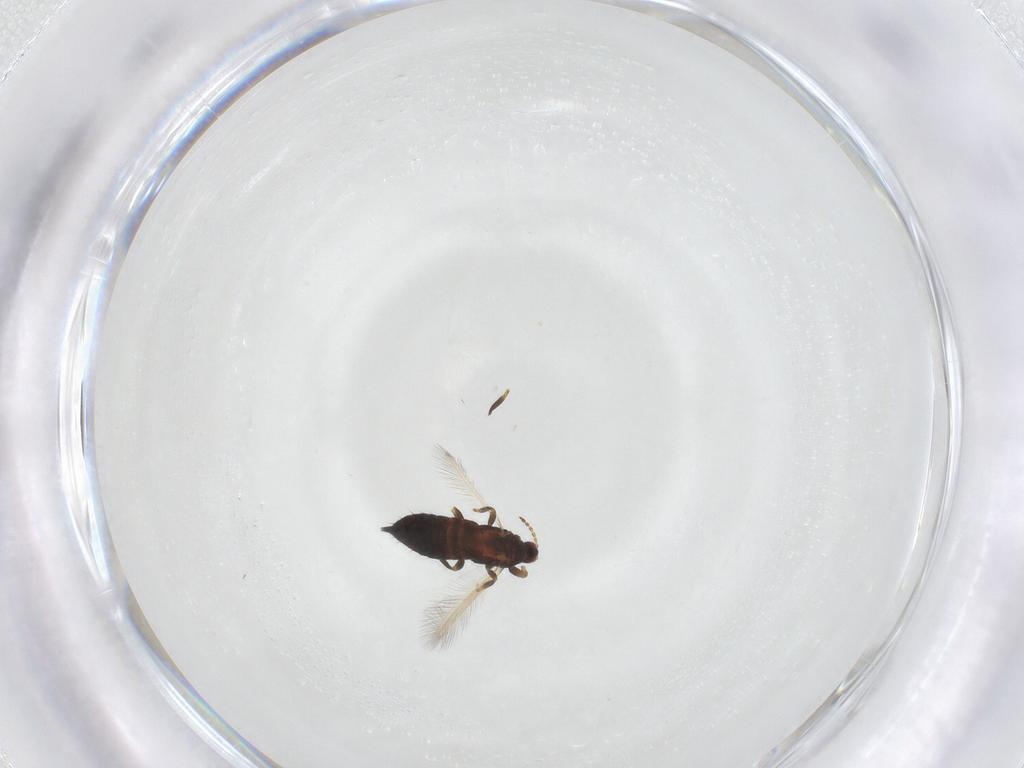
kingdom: Animalia
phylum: Arthropoda
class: Insecta
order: Thysanoptera
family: Phlaeothripidae
